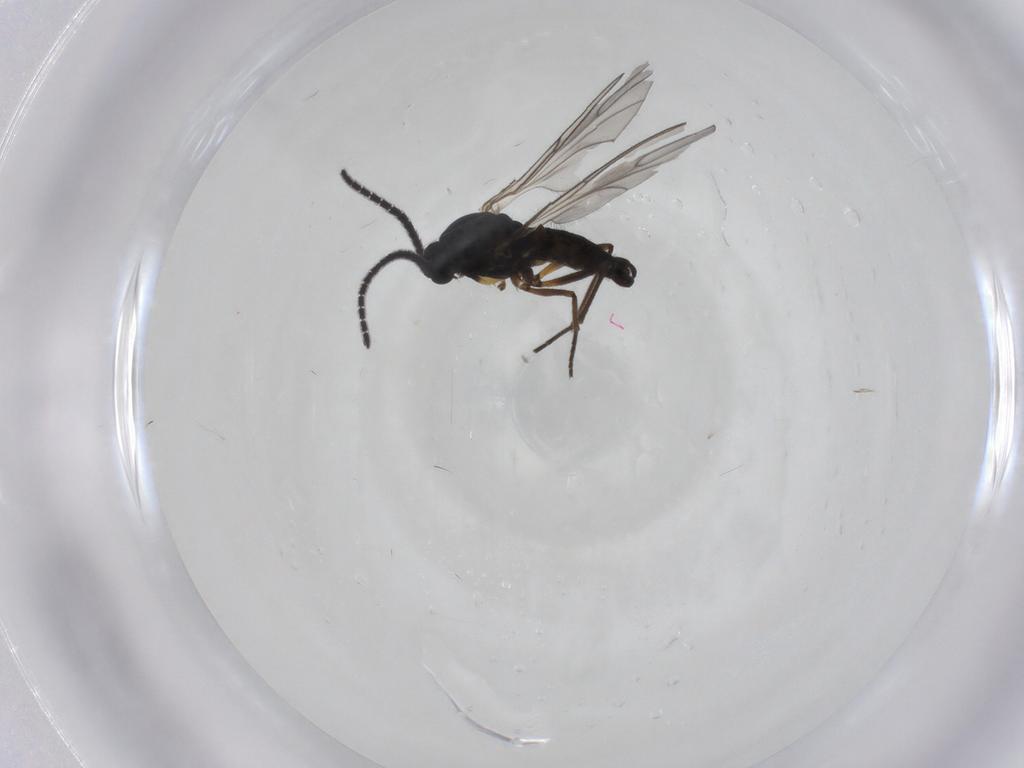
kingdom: Animalia
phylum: Arthropoda
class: Insecta
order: Diptera
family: Sciaridae
